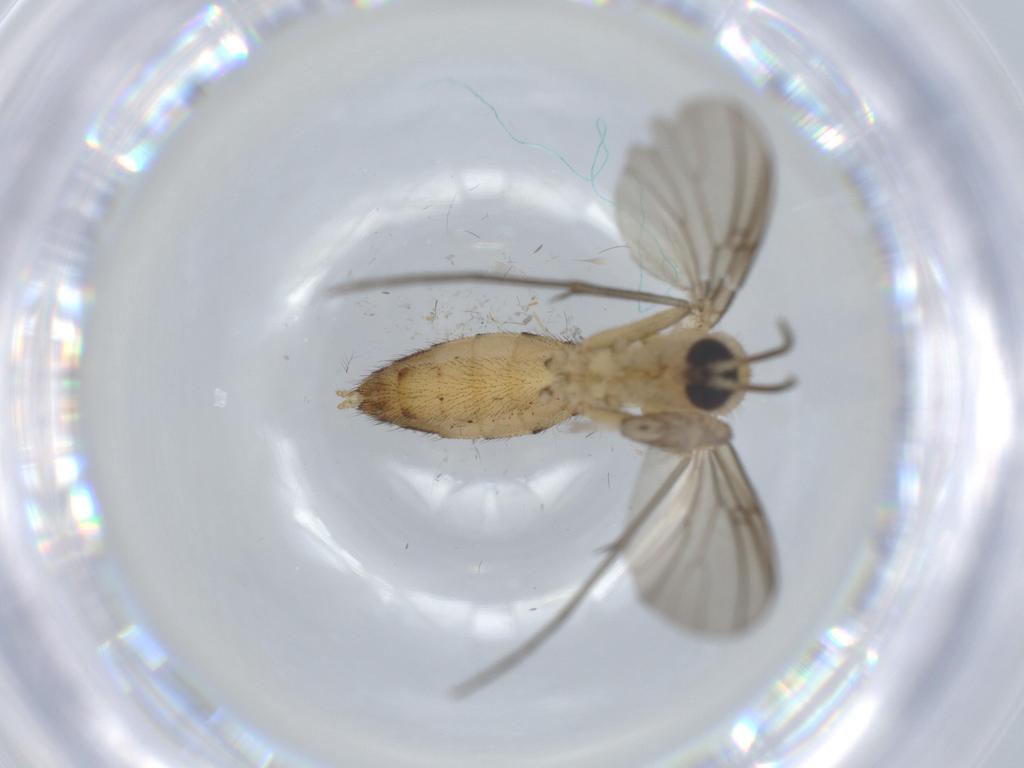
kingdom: Animalia
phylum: Arthropoda
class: Insecta
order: Diptera
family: Mycetophilidae
